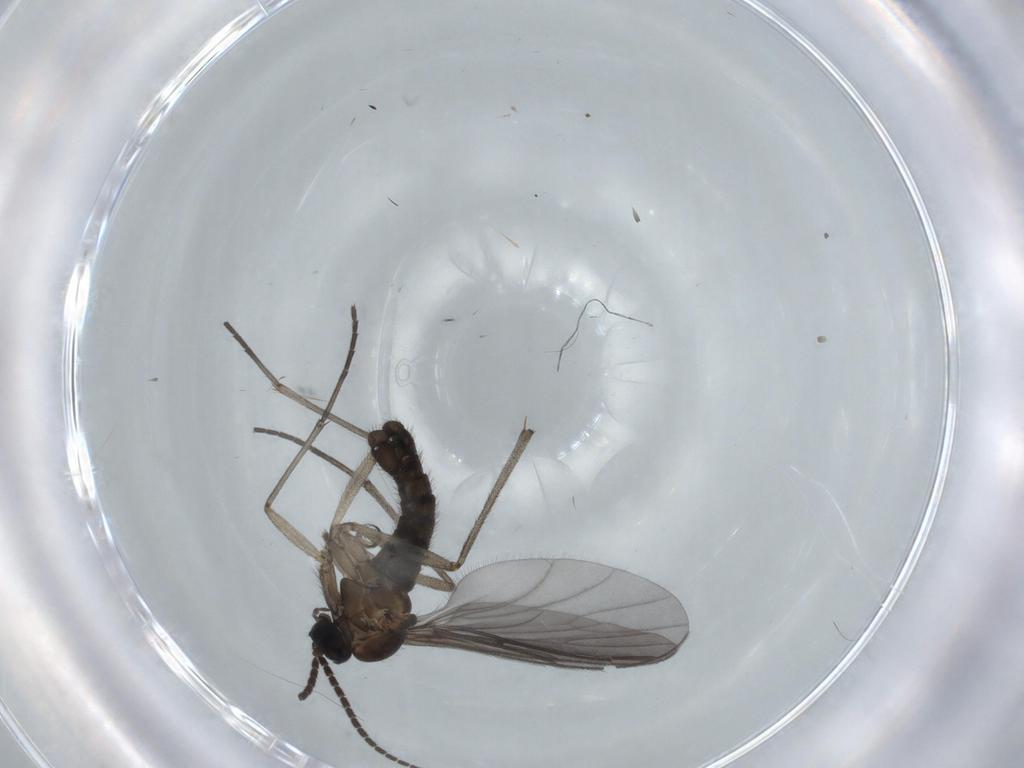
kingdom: Animalia
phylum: Arthropoda
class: Insecta
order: Diptera
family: Sciaridae
